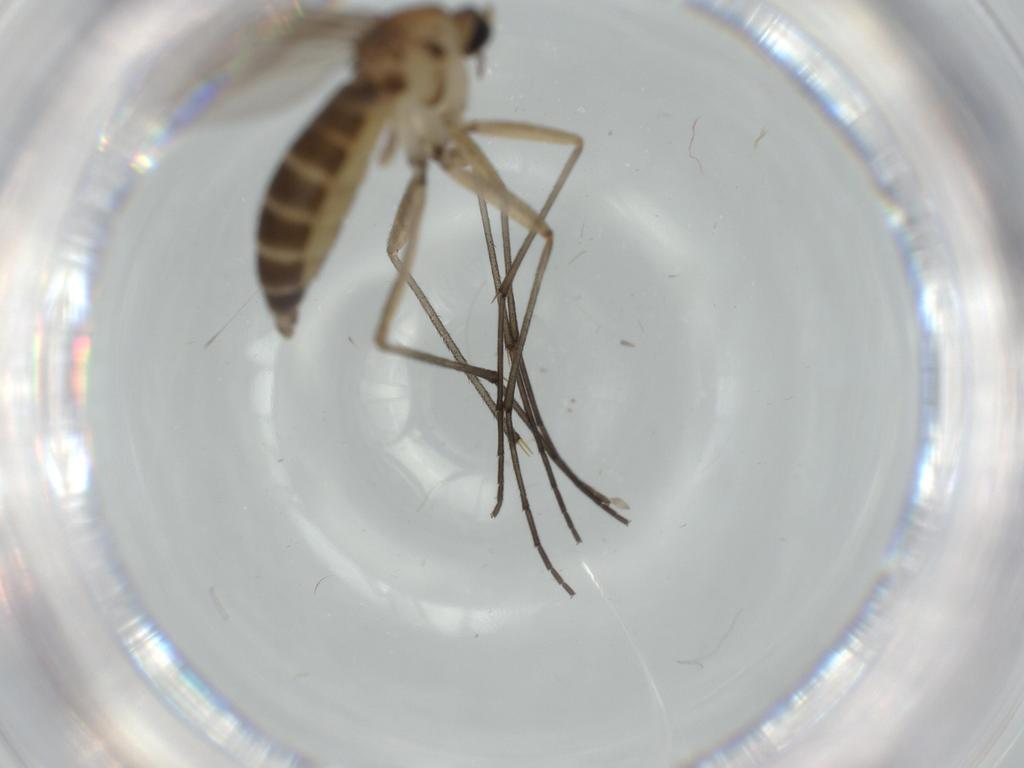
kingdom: Animalia
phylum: Arthropoda
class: Insecta
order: Diptera
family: Sciaridae
